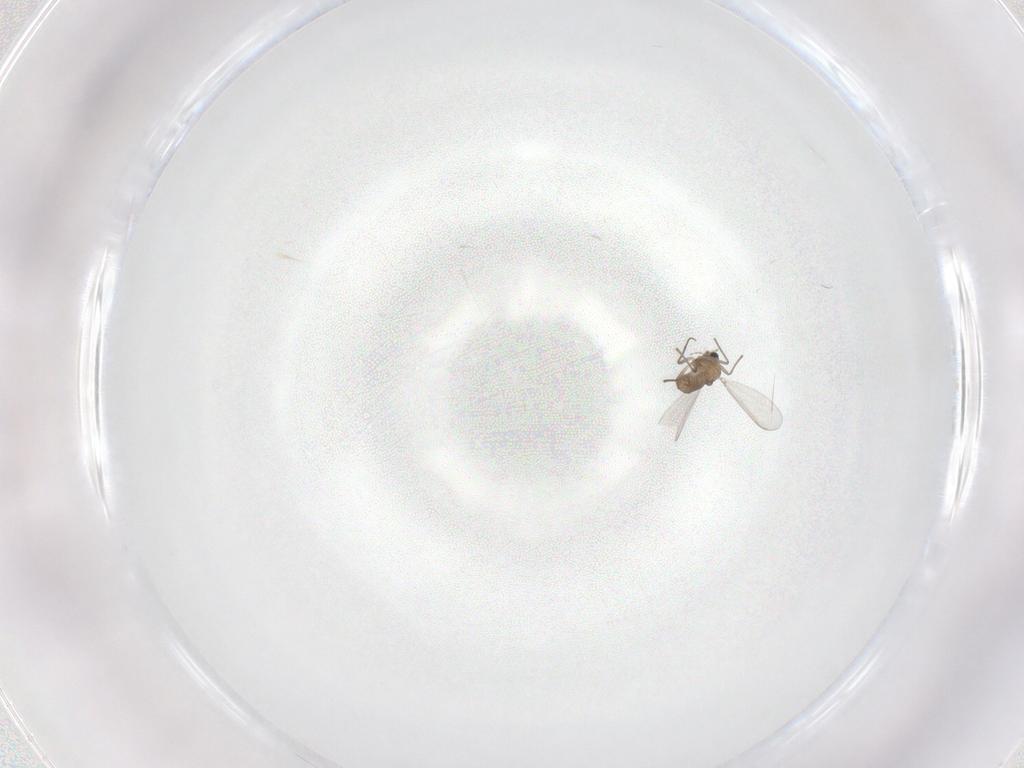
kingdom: Animalia
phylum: Arthropoda
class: Insecta
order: Diptera
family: Chironomidae
